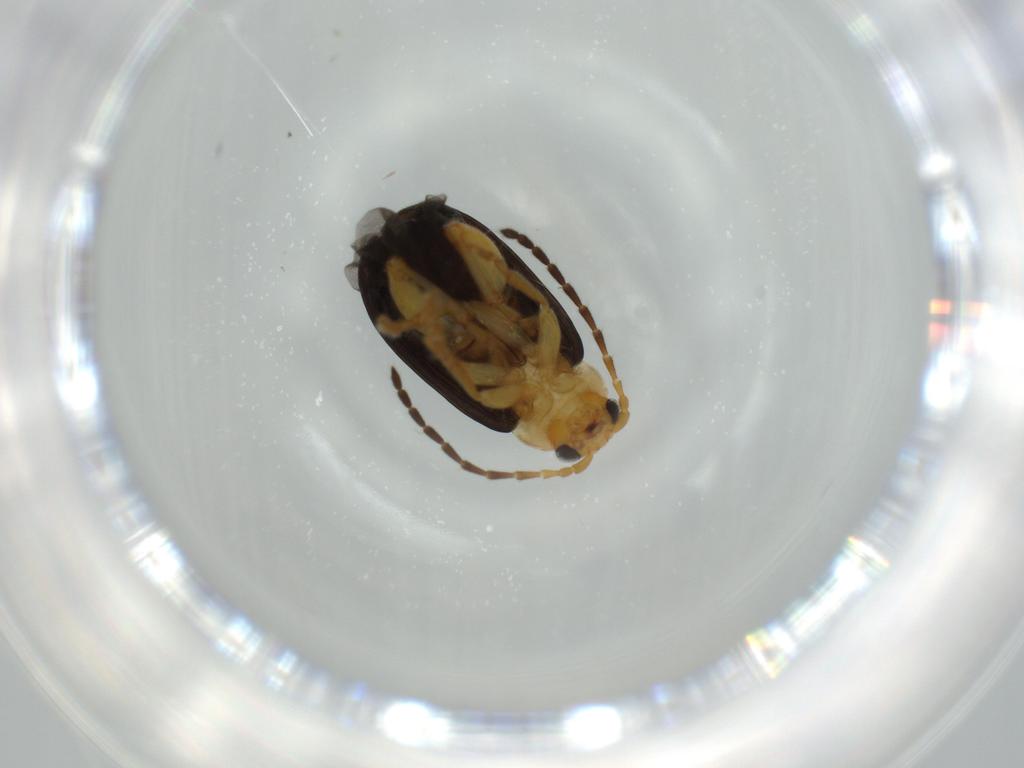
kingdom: Animalia
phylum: Arthropoda
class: Insecta
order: Coleoptera
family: Chrysomelidae
